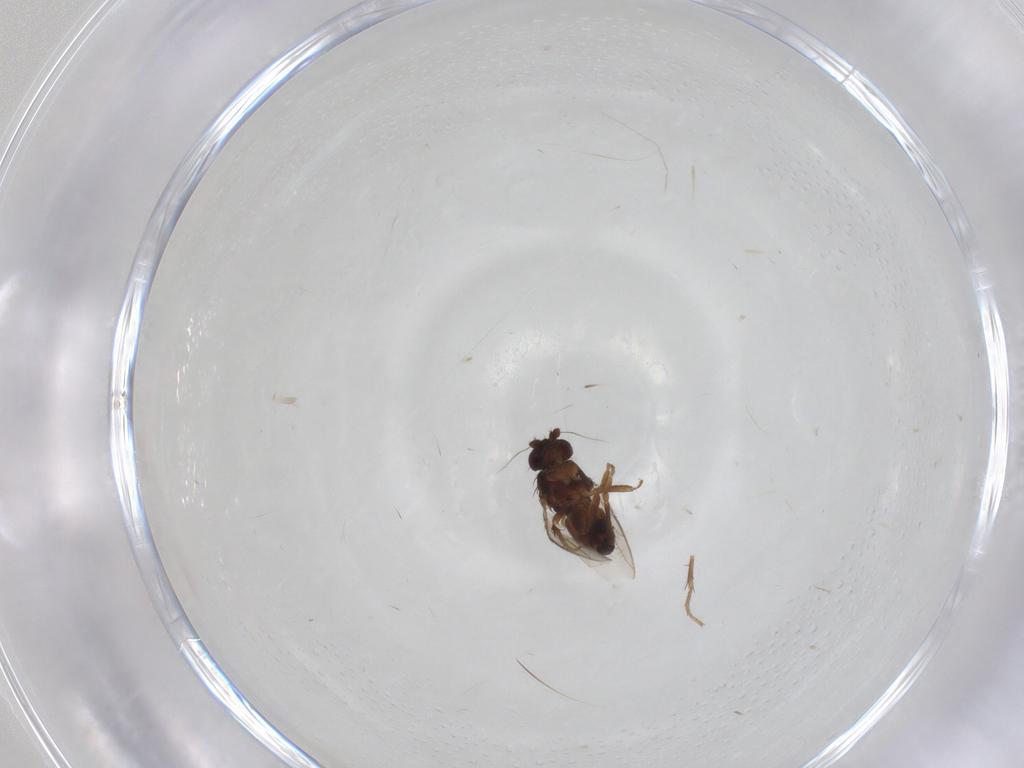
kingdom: Animalia
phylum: Arthropoda
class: Insecta
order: Diptera
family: Sphaeroceridae
